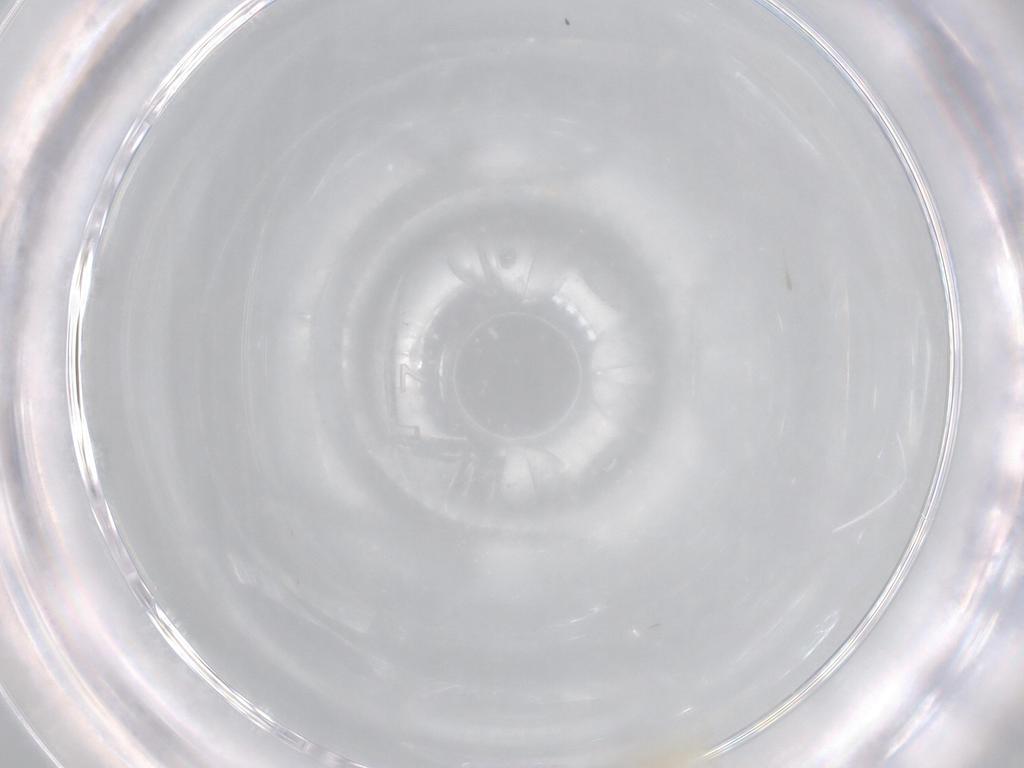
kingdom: Animalia
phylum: Arthropoda
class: Insecta
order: Diptera
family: Cecidomyiidae
